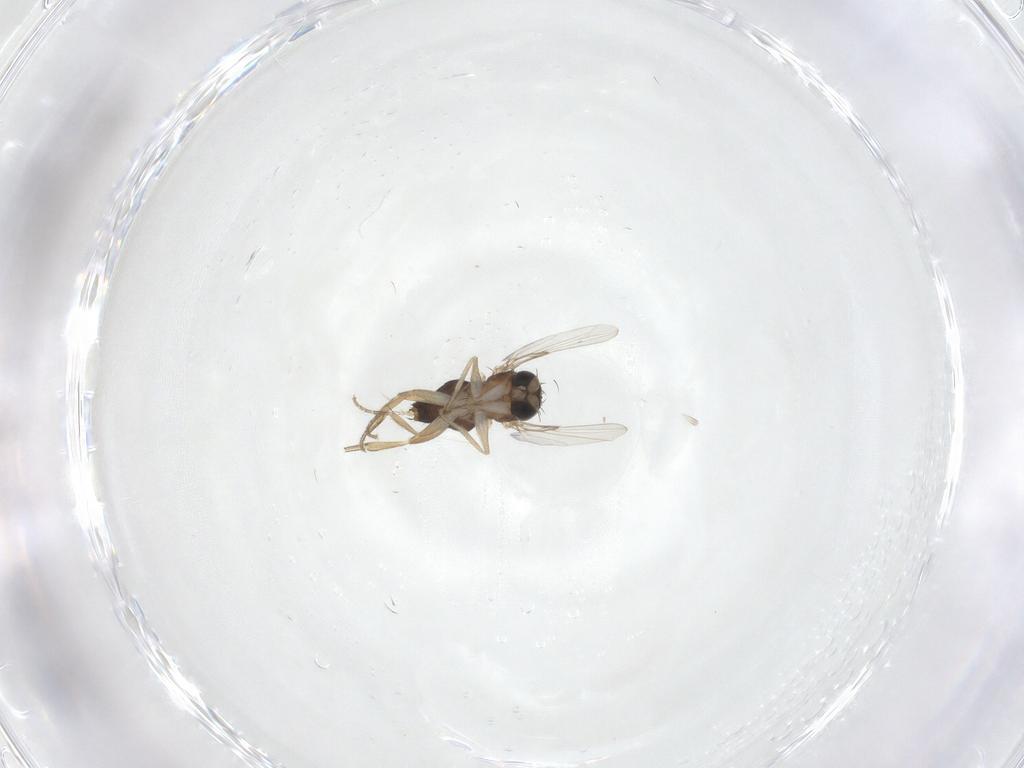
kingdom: Animalia
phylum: Arthropoda
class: Insecta
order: Diptera
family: Phoridae
